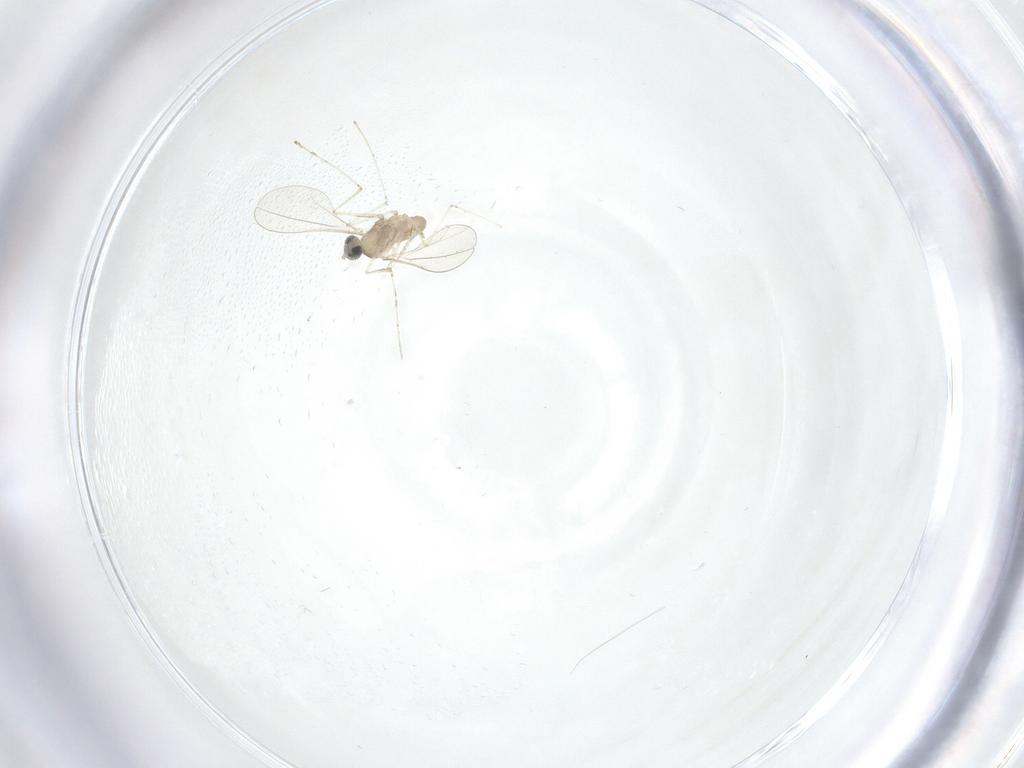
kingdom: Animalia
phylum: Arthropoda
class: Insecta
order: Diptera
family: Cecidomyiidae
